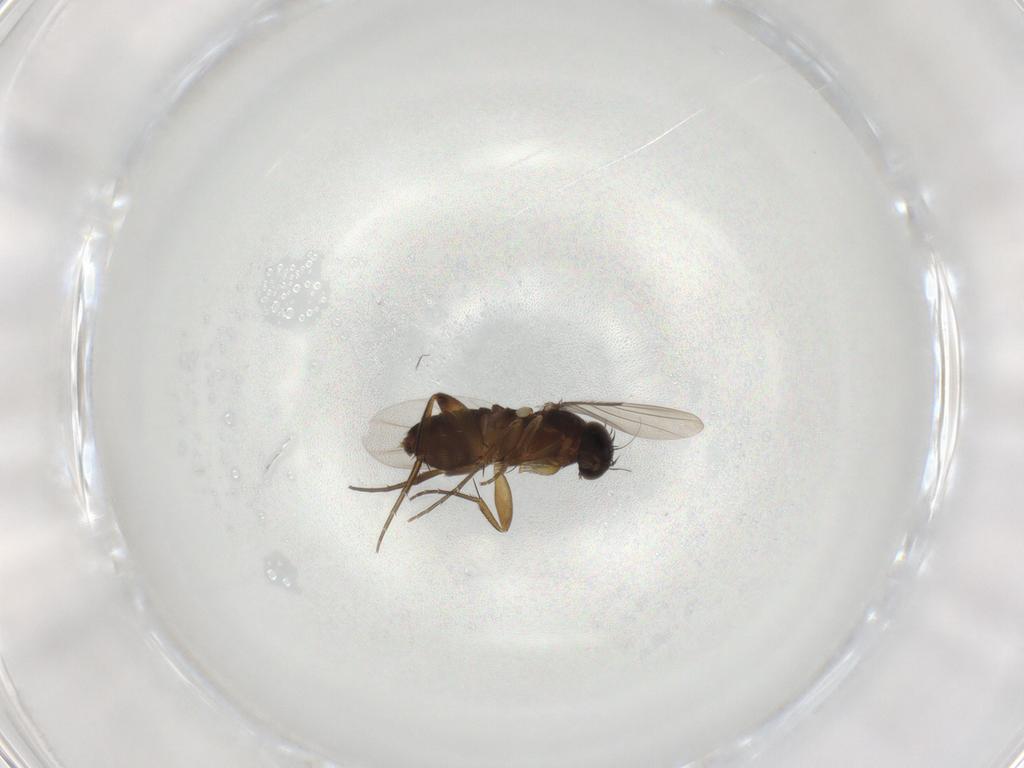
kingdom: Animalia
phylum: Arthropoda
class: Insecta
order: Diptera
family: Phoridae
